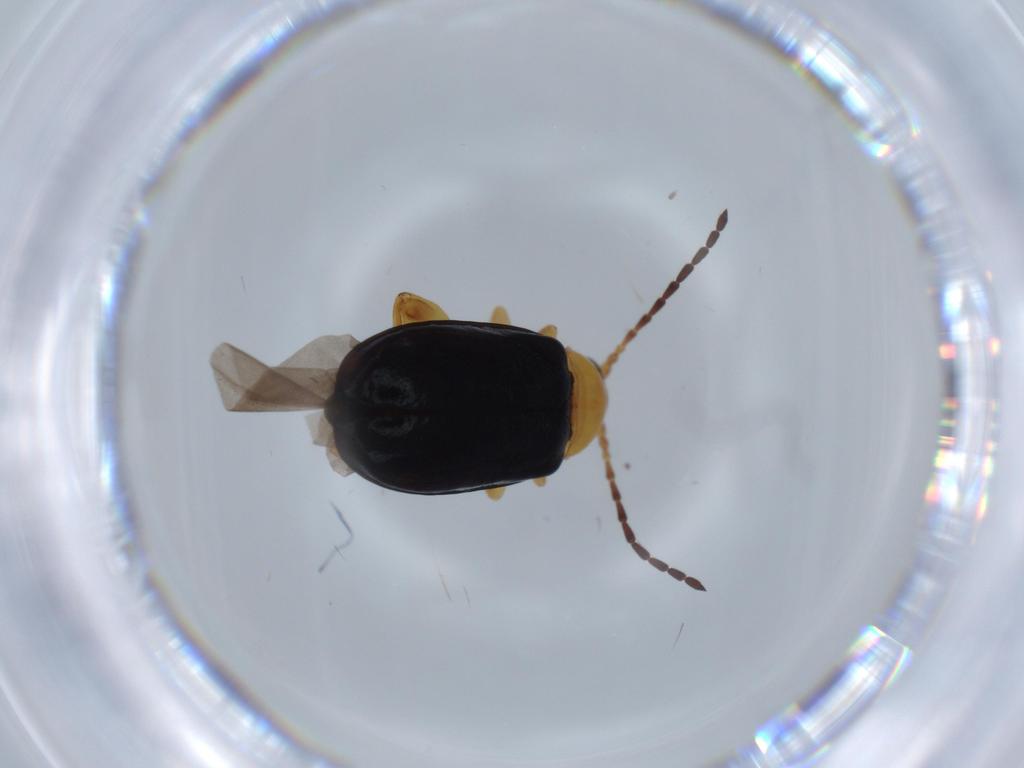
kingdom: Animalia
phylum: Arthropoda
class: Insecta
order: Coleoptera
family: Chrysomelidae
